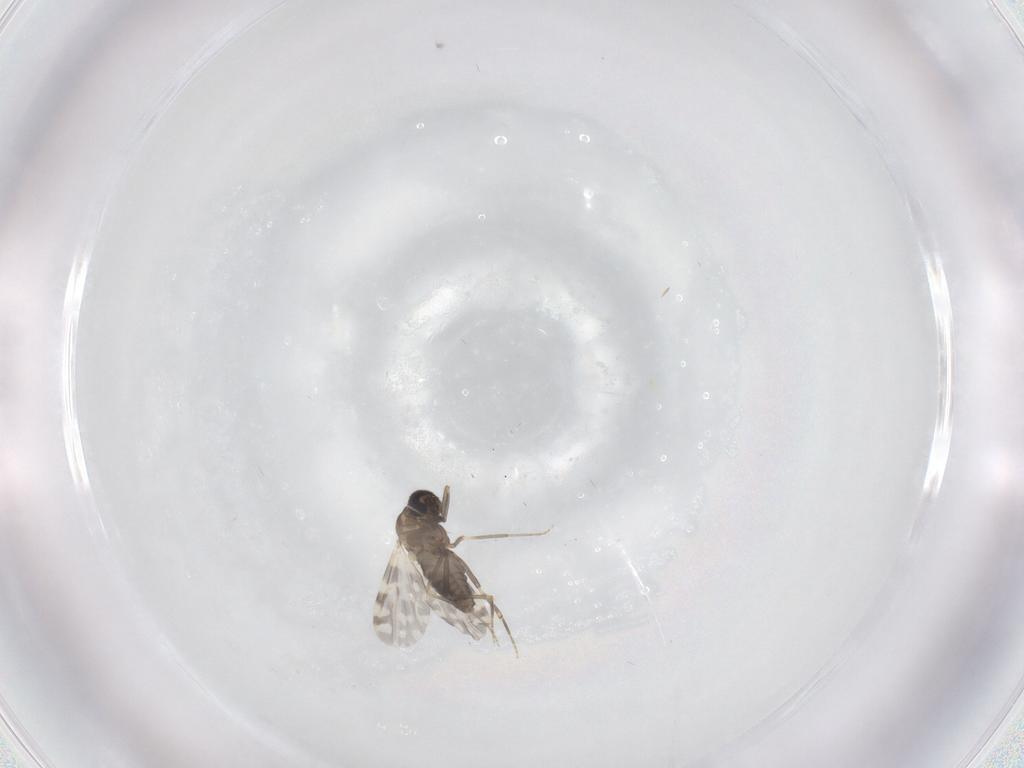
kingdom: Animalia
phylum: Arthropoda
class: Insecta
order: Diptera
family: Ceratopogonidae
